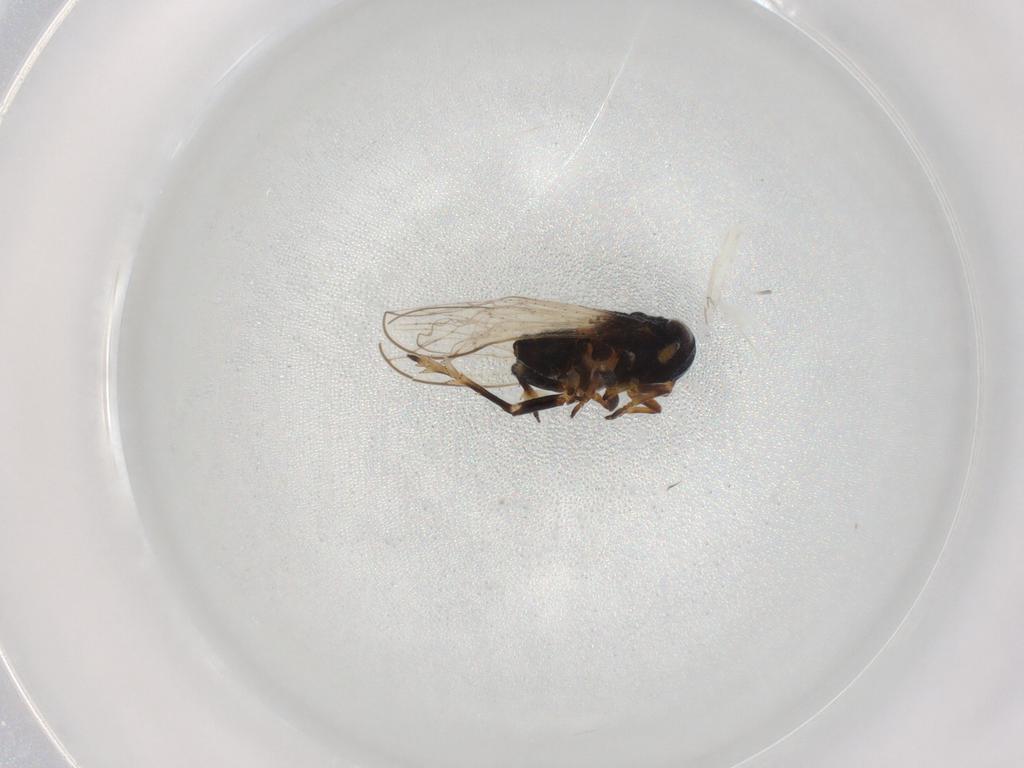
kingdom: Animalia
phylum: Arthropoda
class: Insecta
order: Hemiptera
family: Delphacidae
